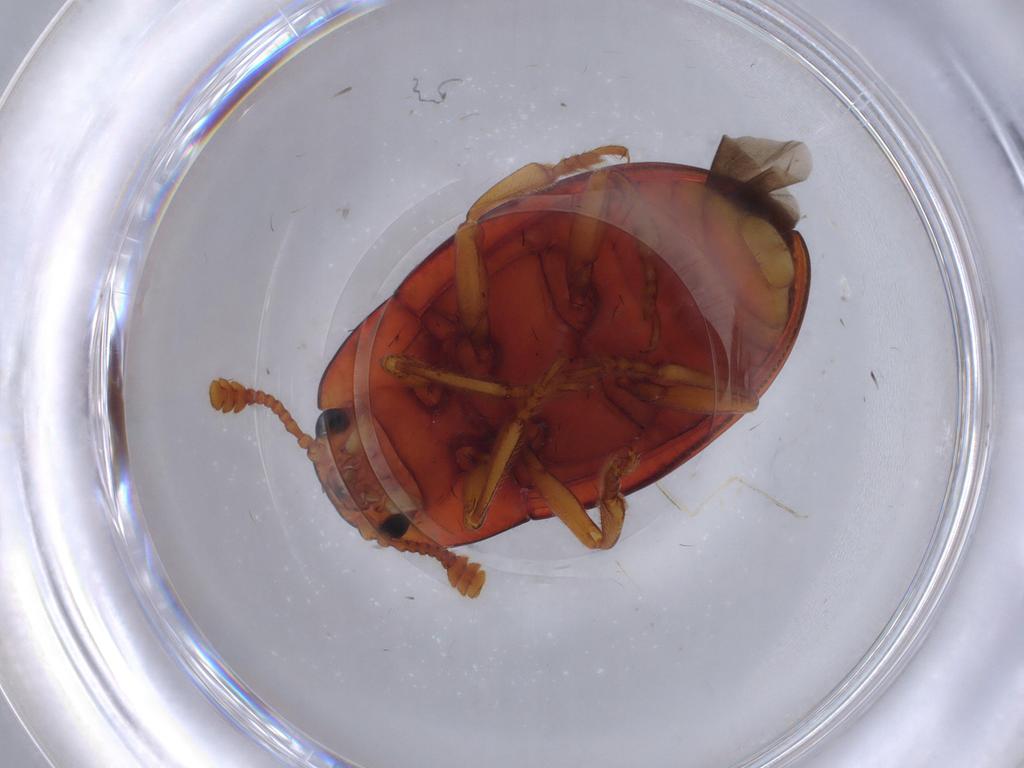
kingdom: Animalia
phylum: Arthropoda
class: Insecta
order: Coleoptera
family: Erotylidae
